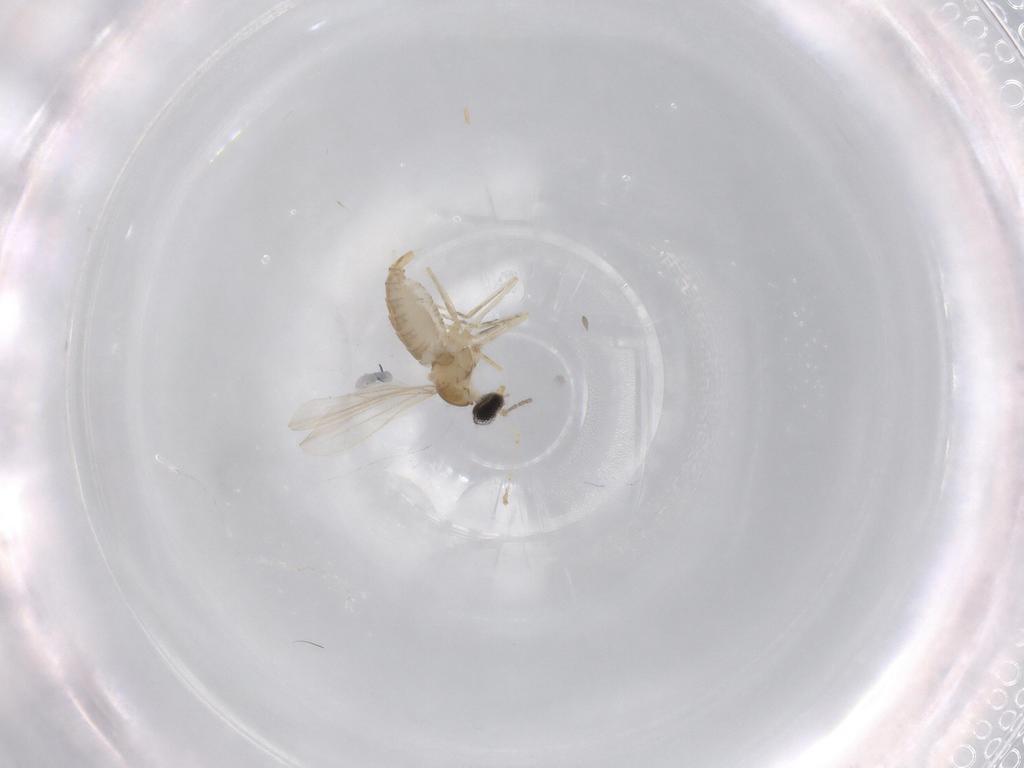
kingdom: Animalia
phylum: Arthropoda
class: Insecta
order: Diptera
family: Cecidomyiidae
